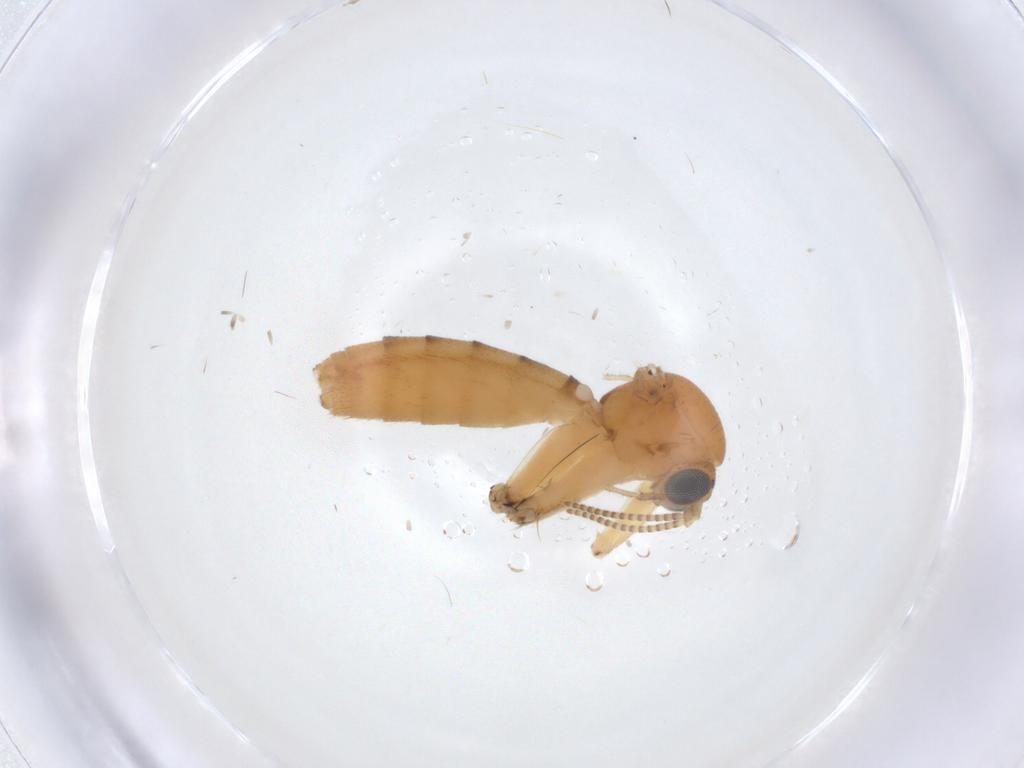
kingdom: Animalia
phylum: Arthropoda
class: Insecta
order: Diptera
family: Mycetophilidae
